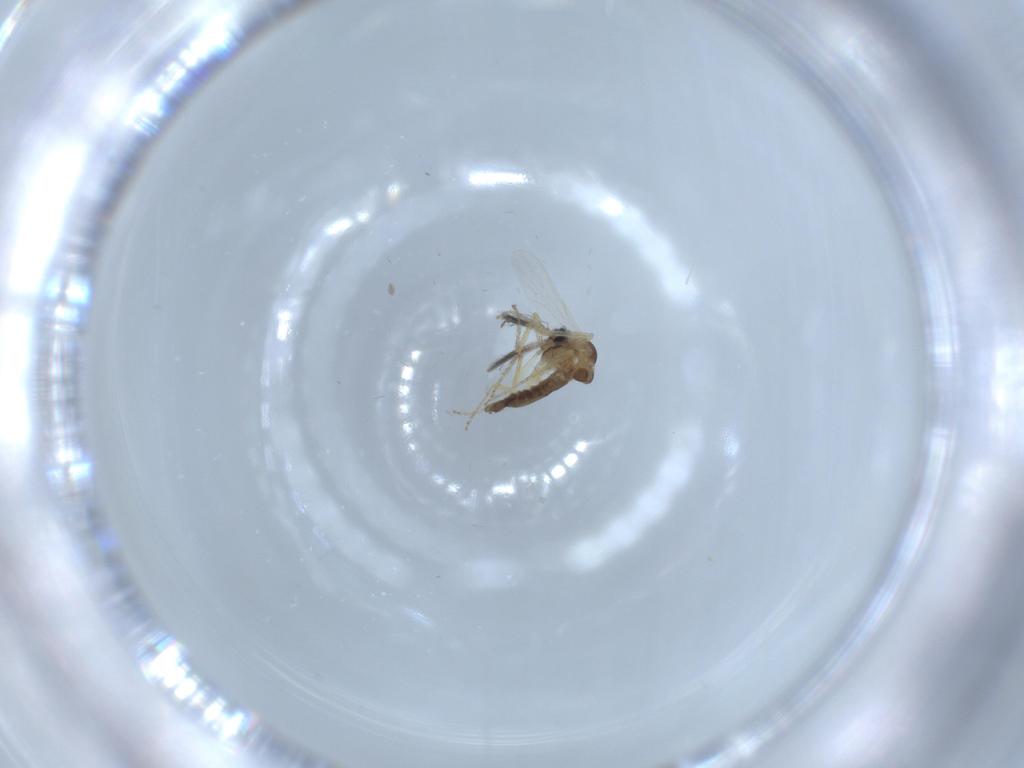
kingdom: Animalia
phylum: Arthropoda
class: Insecta
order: Diptera
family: Ceratopogonidae
